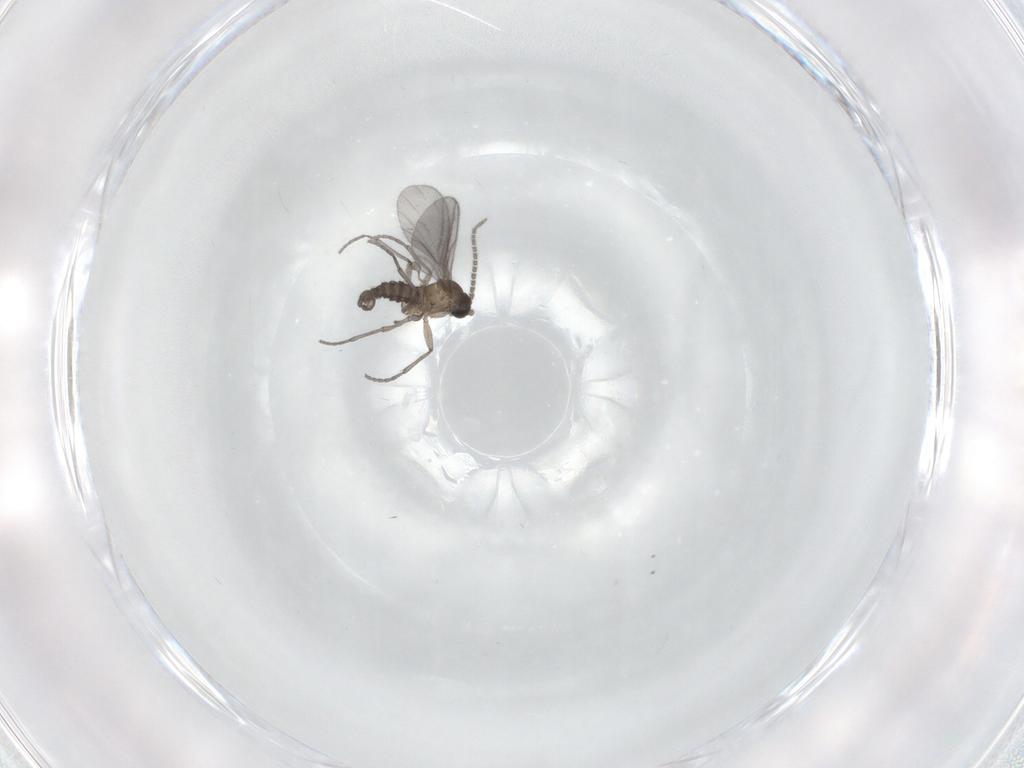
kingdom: Animalia
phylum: Arthropoda
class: Insecta
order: Diptera
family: Sciaridae
